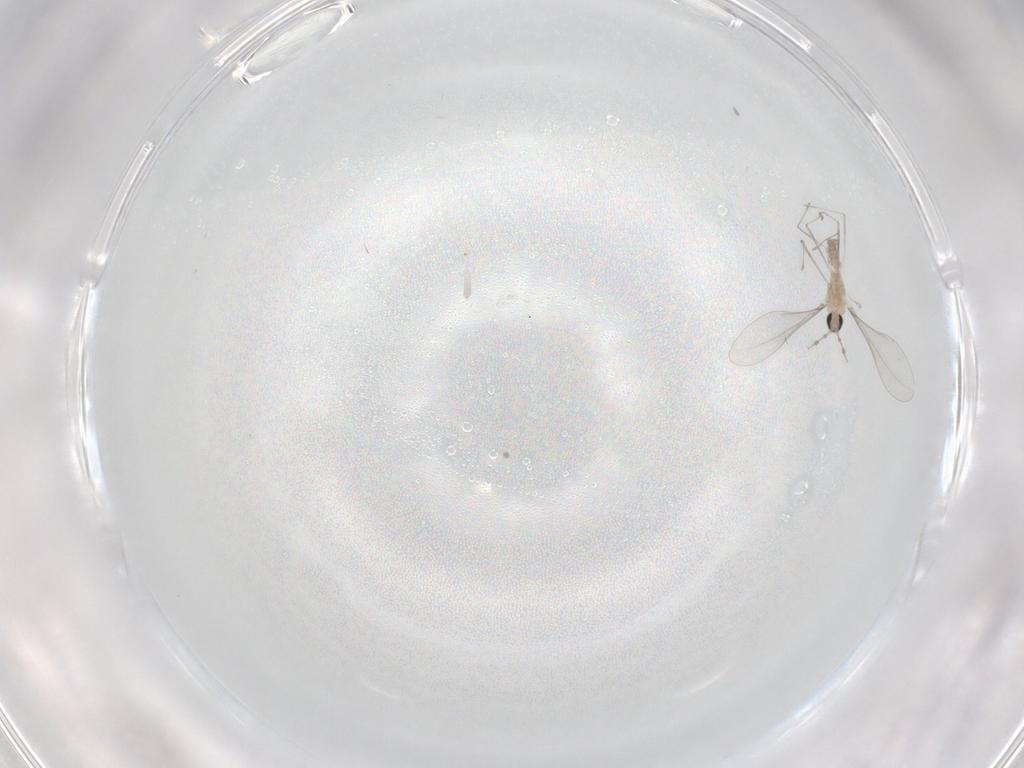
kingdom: Animalia
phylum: Arthropoda
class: Insecta
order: Diptera
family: Cecidomyiidae
